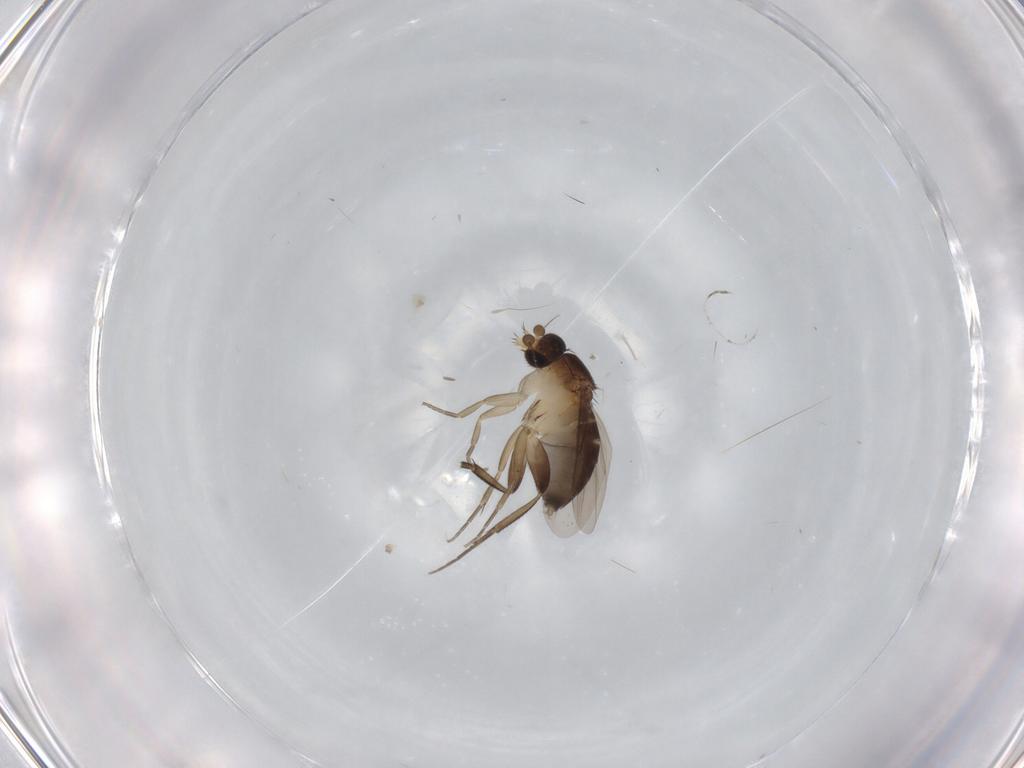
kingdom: Animalia
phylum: Arthropoda
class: Insecta
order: Diptera
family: Phoridae
